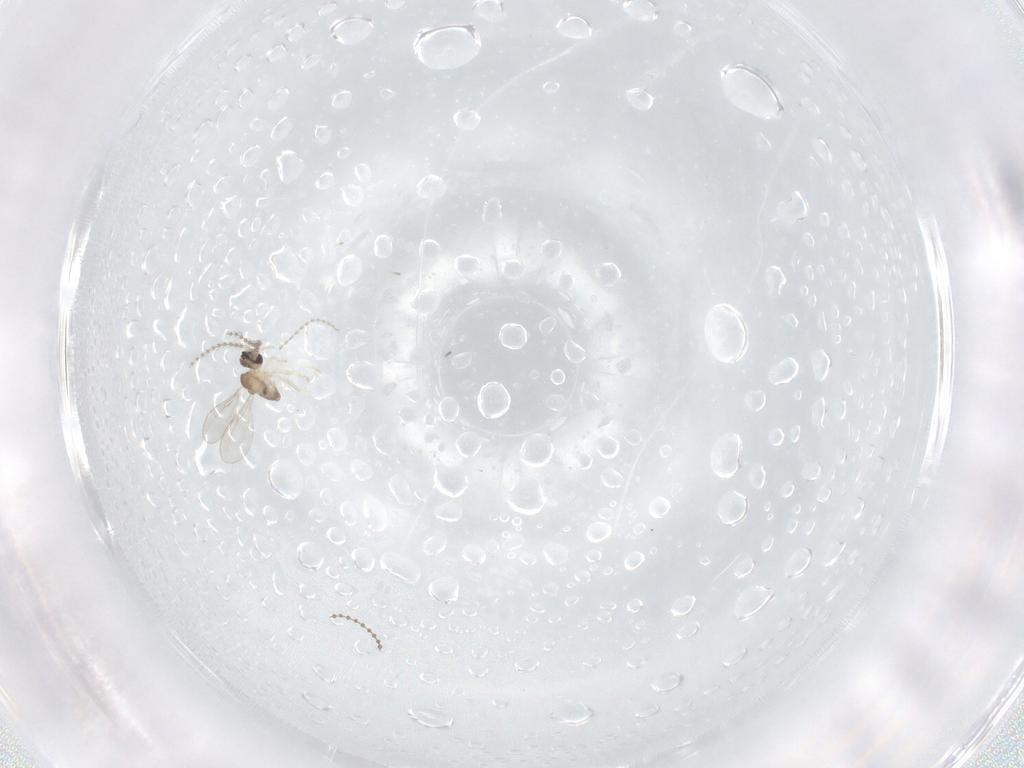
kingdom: Animalia
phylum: Arthropoda
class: Insecta
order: Diptera
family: Cecidomyiidae
